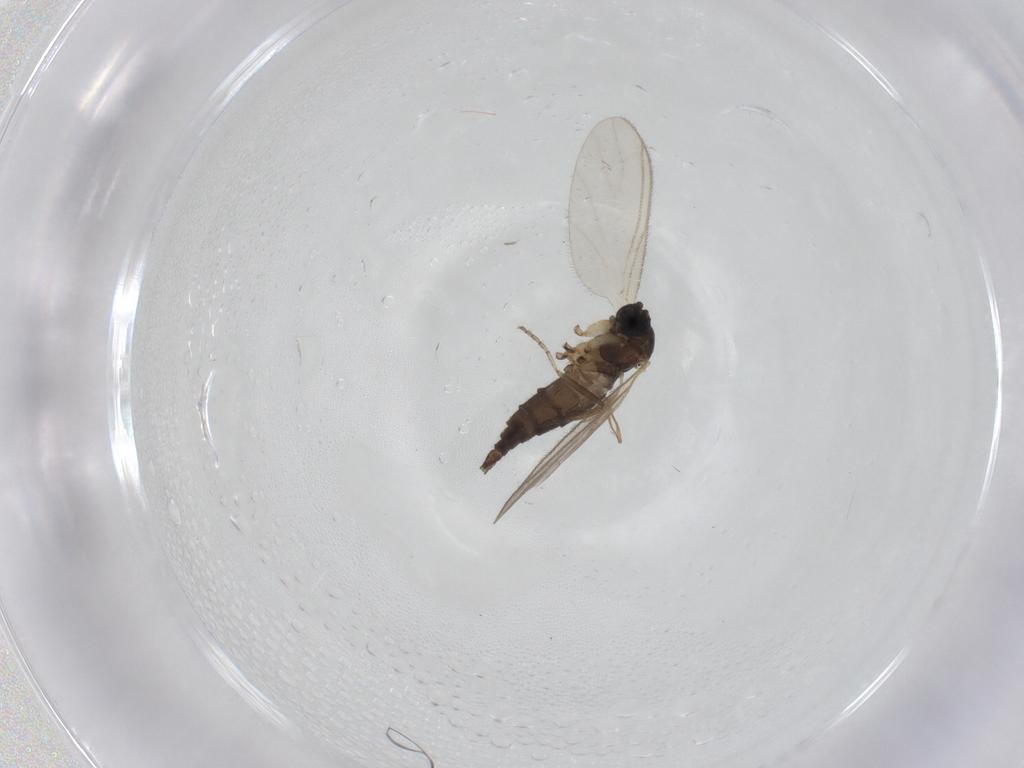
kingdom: Animalia
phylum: Arthropoda
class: Insecta
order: Diptera
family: Sciaridae
